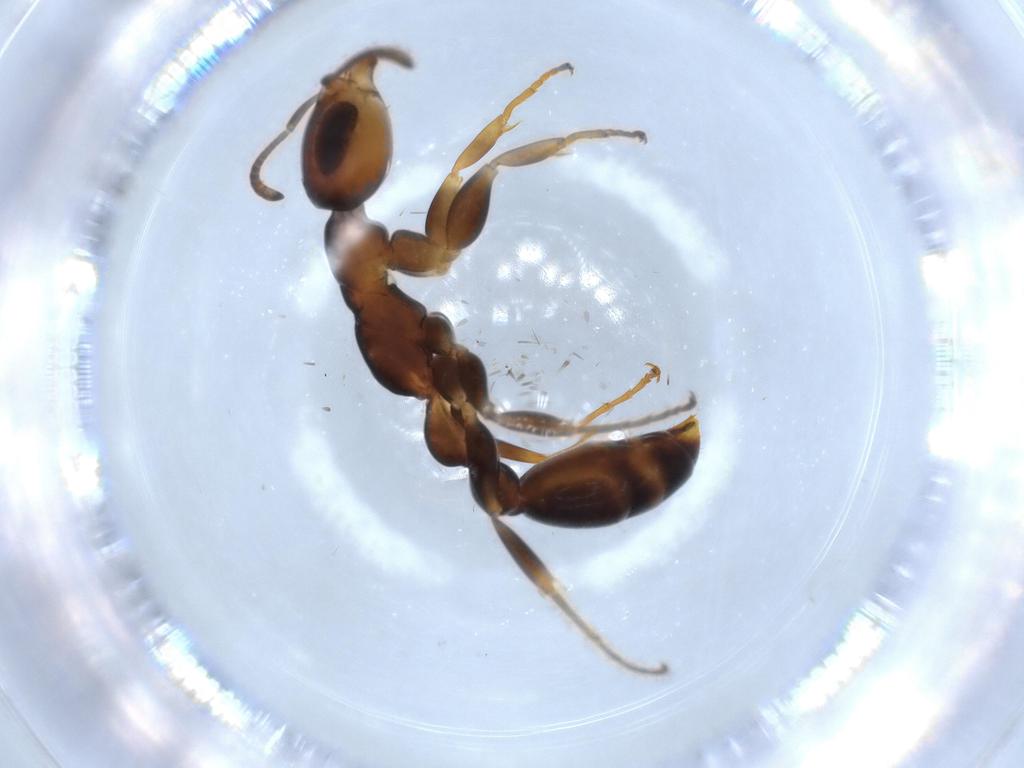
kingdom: Animalia
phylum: Arthropoda
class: Insecta
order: Hymenoptera
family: Formicidae
